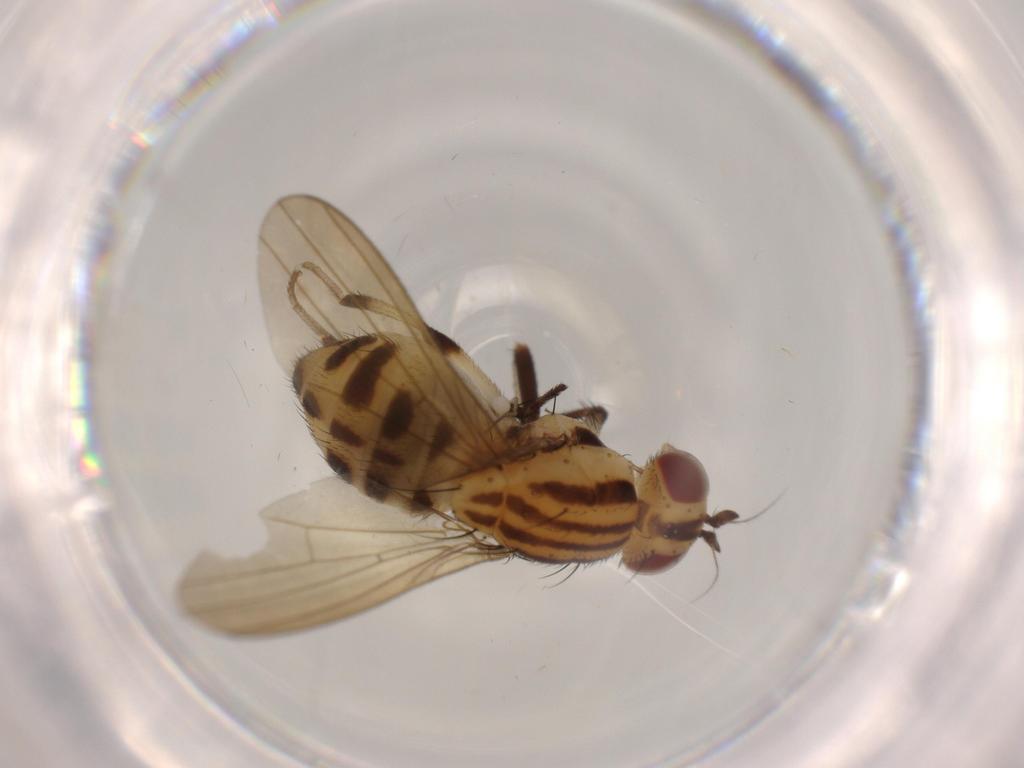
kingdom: Animalia
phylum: Arthropoda
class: Insecta
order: Diptera
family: Lauxaniidae
